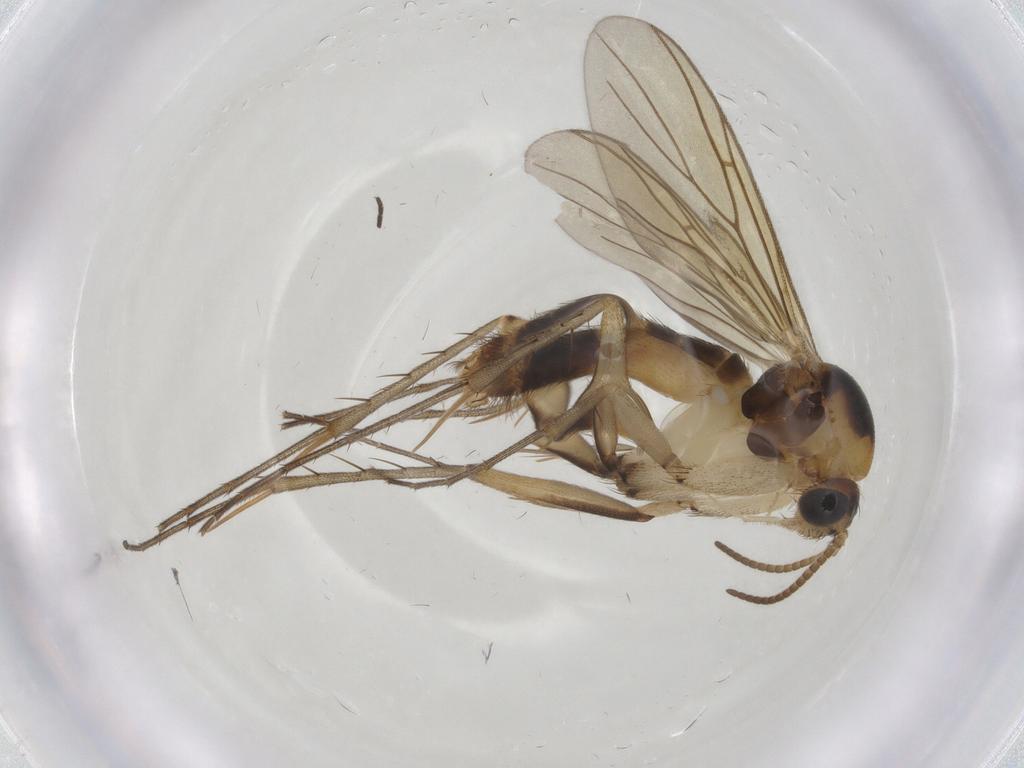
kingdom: Animalia
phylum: Arthropoda
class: Insecta
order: Diptera
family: Mycetophilidae
